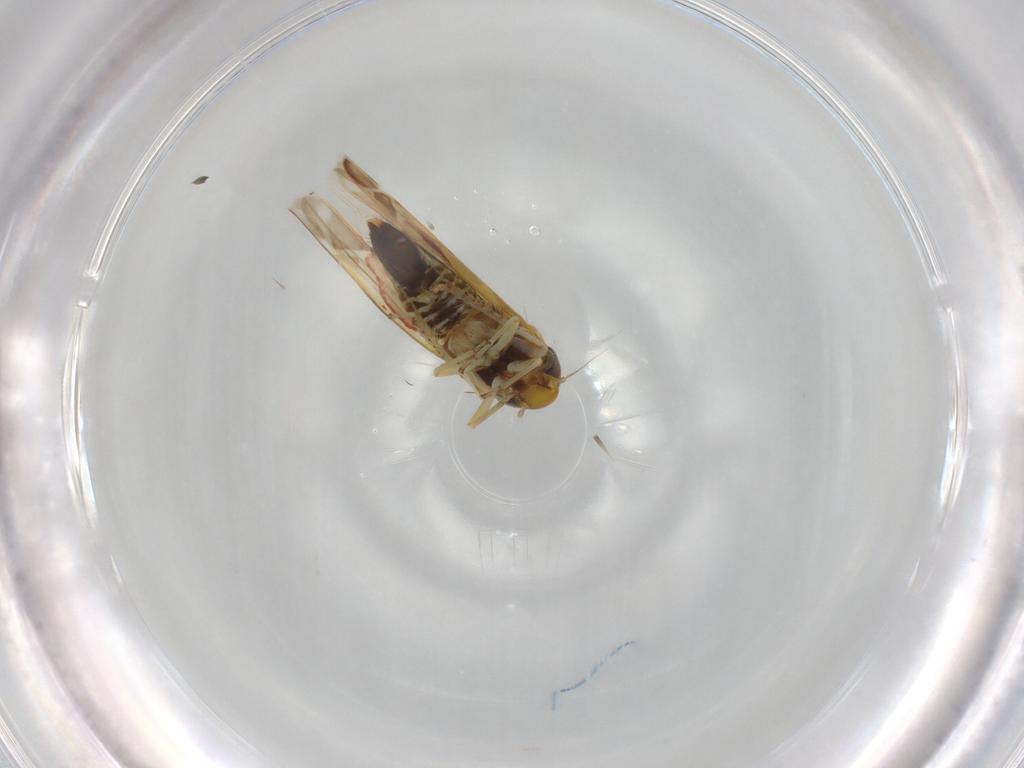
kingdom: Animalia
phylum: Arthropoda
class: Insecta
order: Hemiptera
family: Cicadellidae
